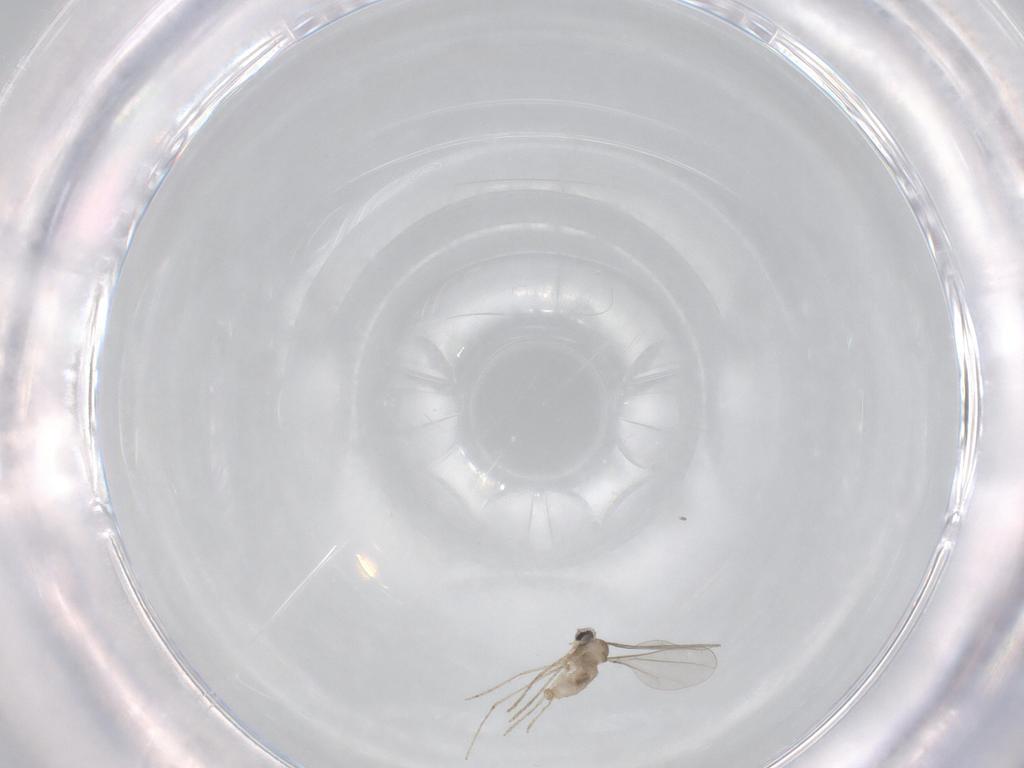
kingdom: Animalia
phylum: Arthropoda
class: Insecta
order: Diptera
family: Cecidomyiidae
